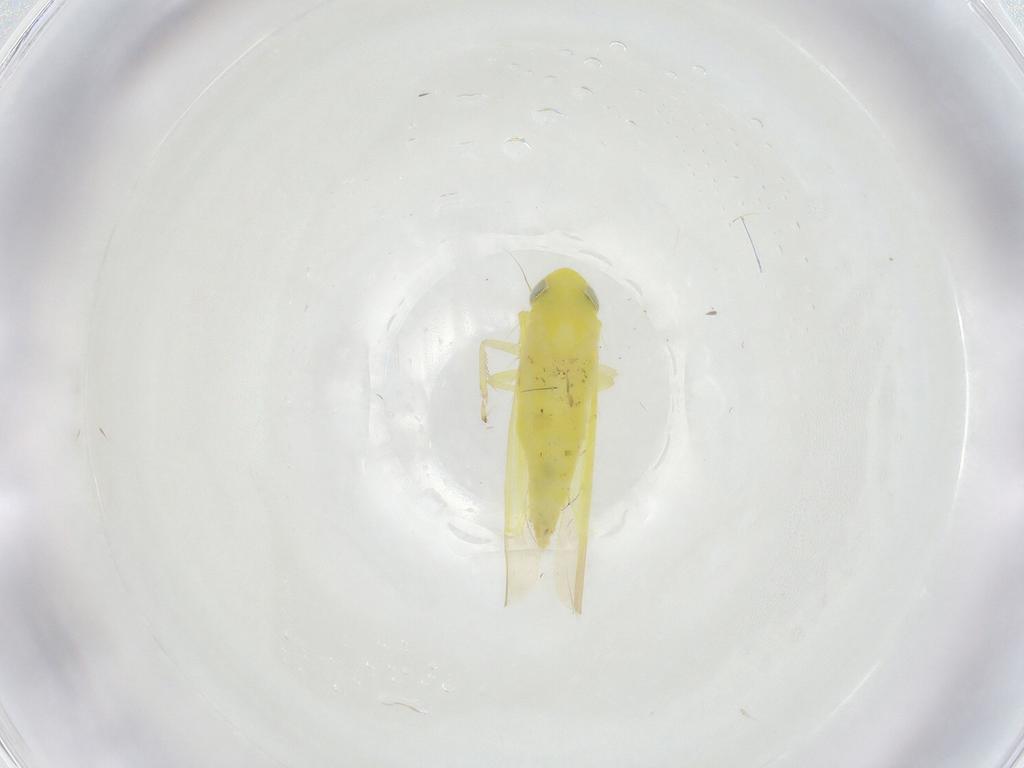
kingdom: Animalia
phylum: Arthropoda
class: Insecta
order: Hemiptera
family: Cicadellidae
